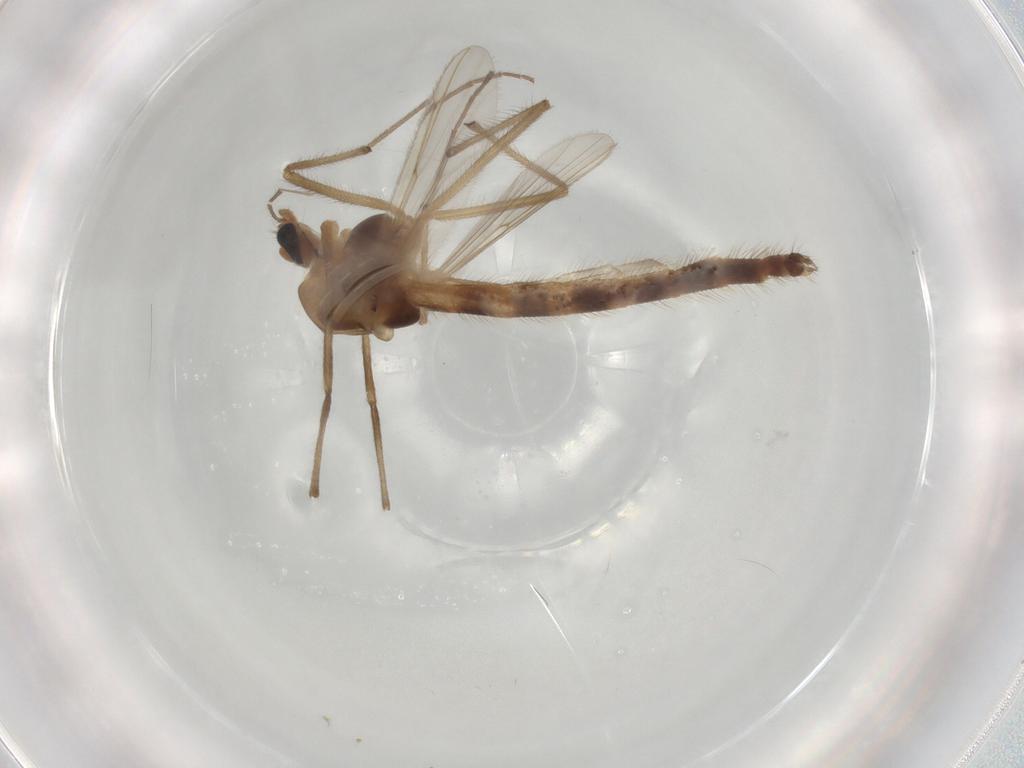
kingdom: Animalia
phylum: Arthropoda
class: Insecta
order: Diptera
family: Chironomidae
